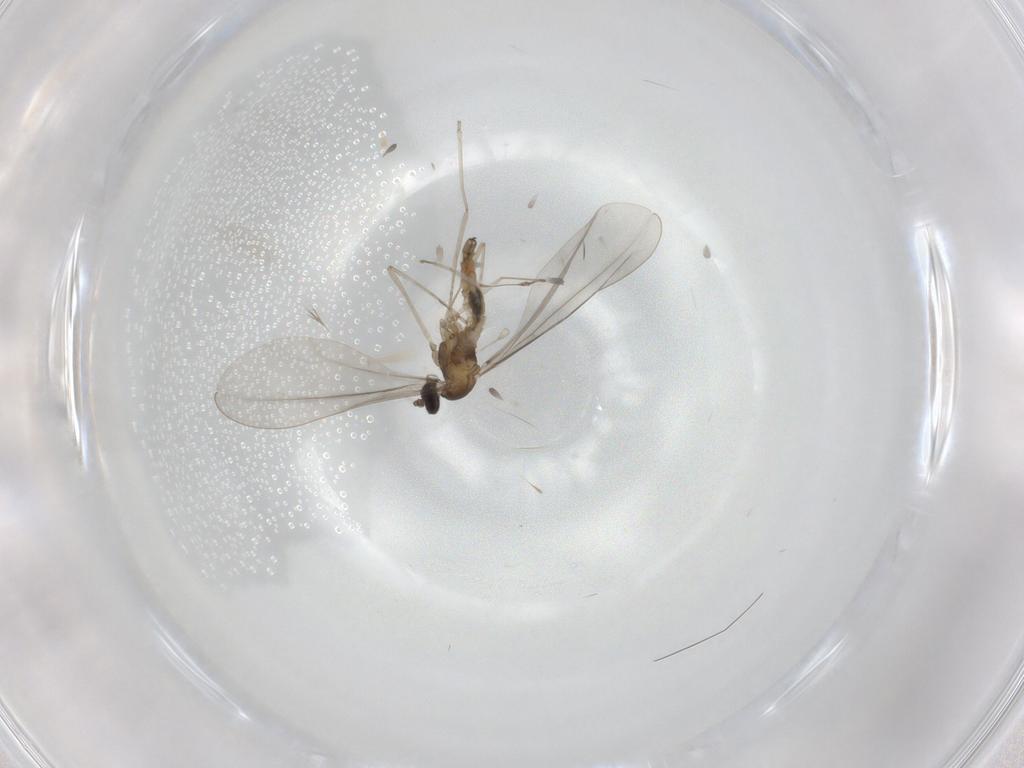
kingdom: Animalia
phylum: Arthropoda
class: Insecta
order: Diptera
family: Cecidomyiidae
